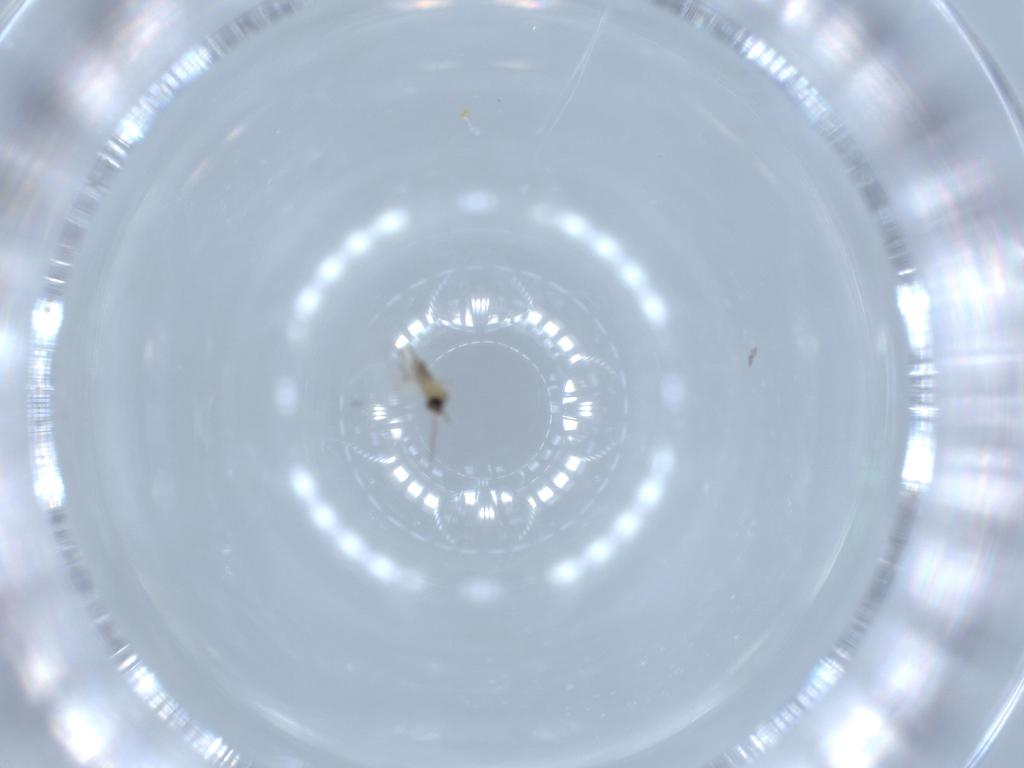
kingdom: Animalia
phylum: Arthropoda
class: Insecta
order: Diptera
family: Cecidomyiidae
